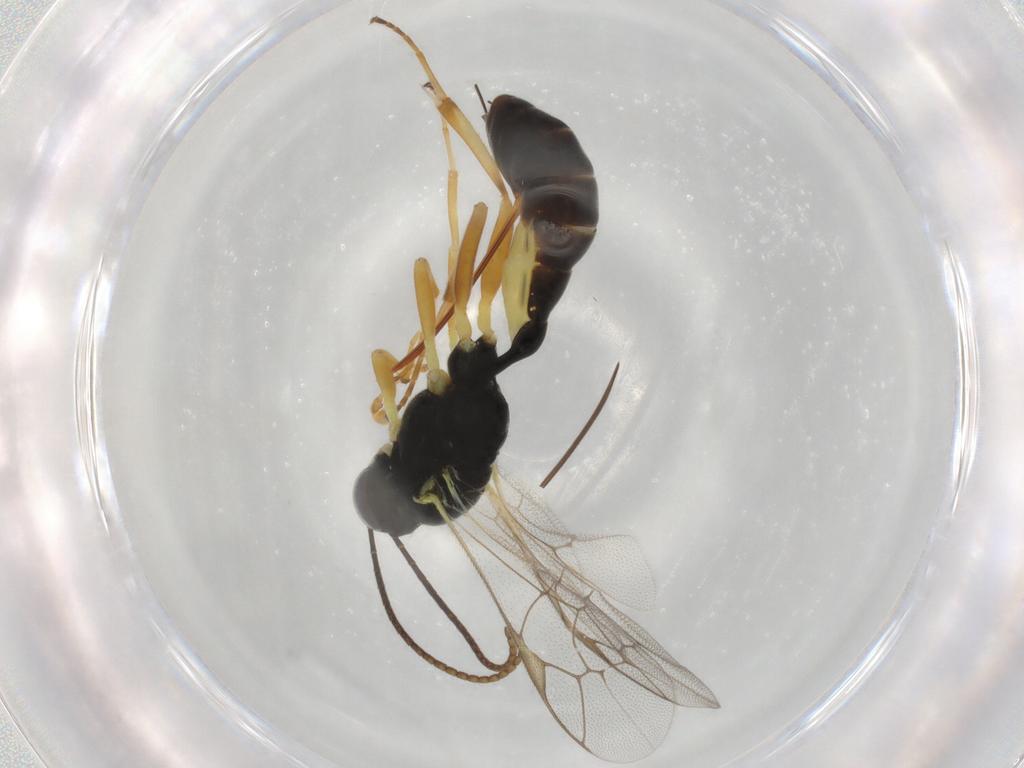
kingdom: Animalia
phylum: Arthropoda
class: Insecta
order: Hymenoptera
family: Ichneumonidae
